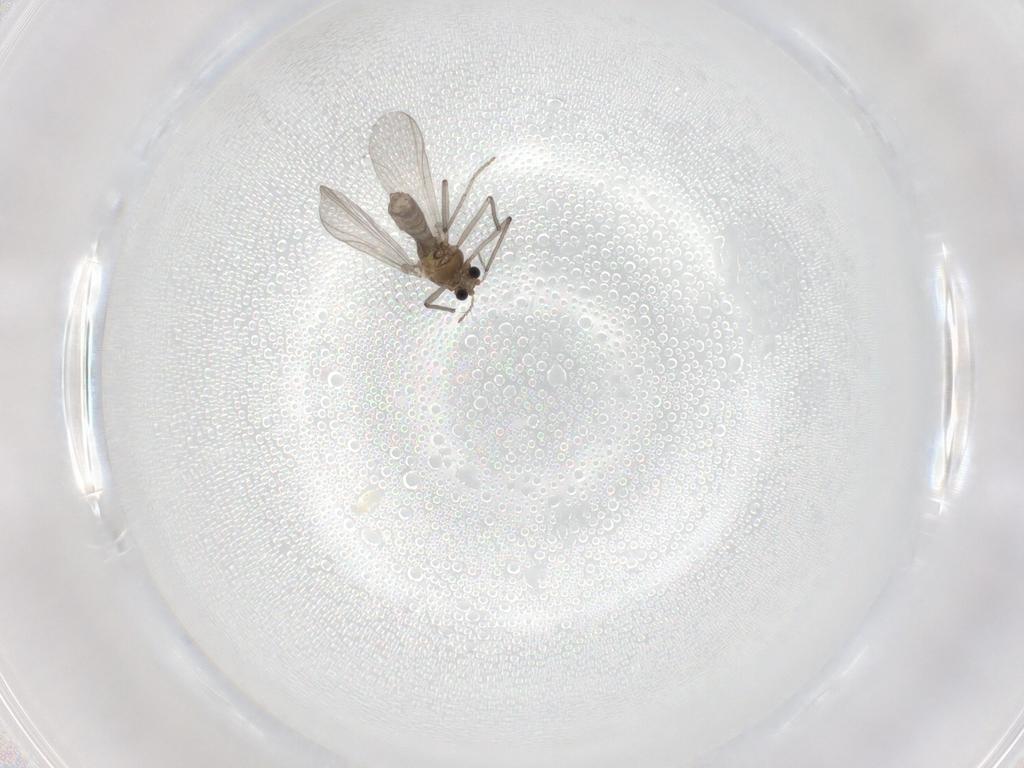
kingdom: Animalia
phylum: Arthropoda
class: Insecta
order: Diptera
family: Chironomidae
